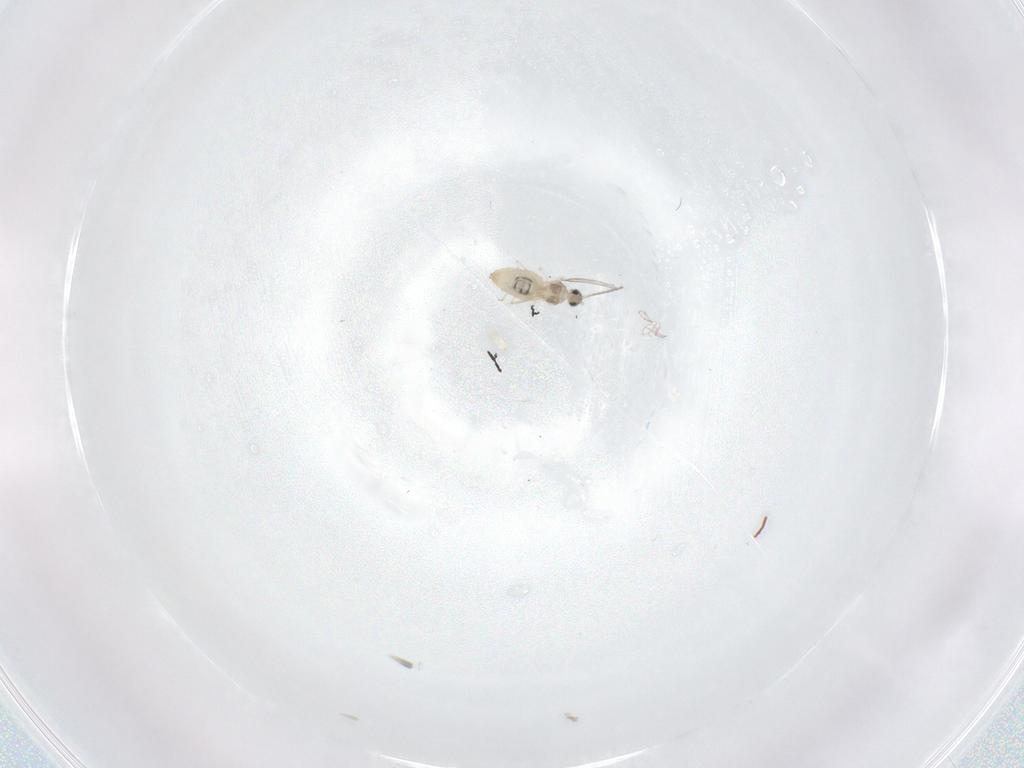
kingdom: Animalia
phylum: Arthropoda
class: Insecta
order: Diptera
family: Cecidomyiidae
